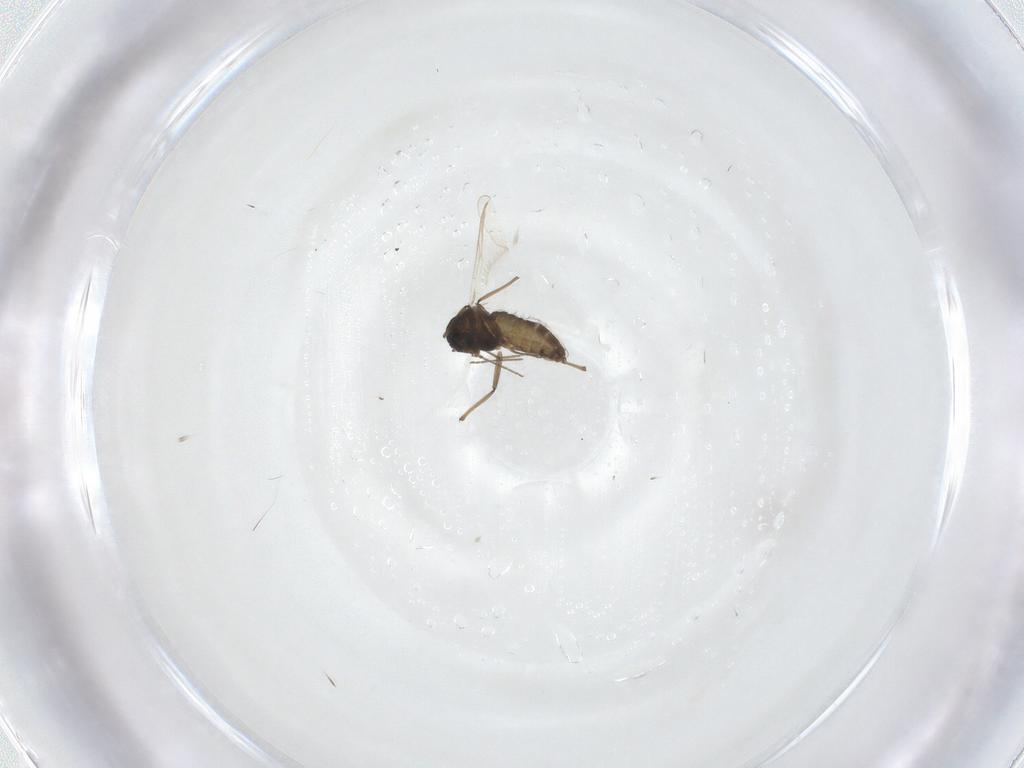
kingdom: Animalia
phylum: Arthropoda
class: Insecta
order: Diptera
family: Chironomidae
